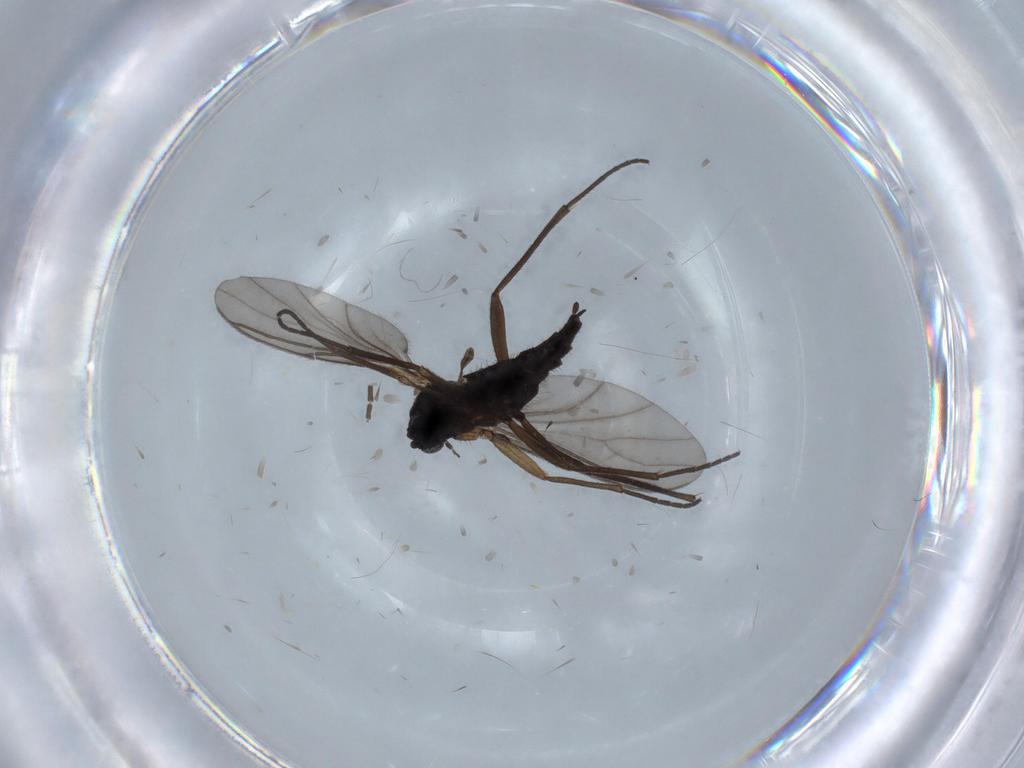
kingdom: Animalia
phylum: Arthropoda
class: Insecta
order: Diptera
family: Sciaridae
